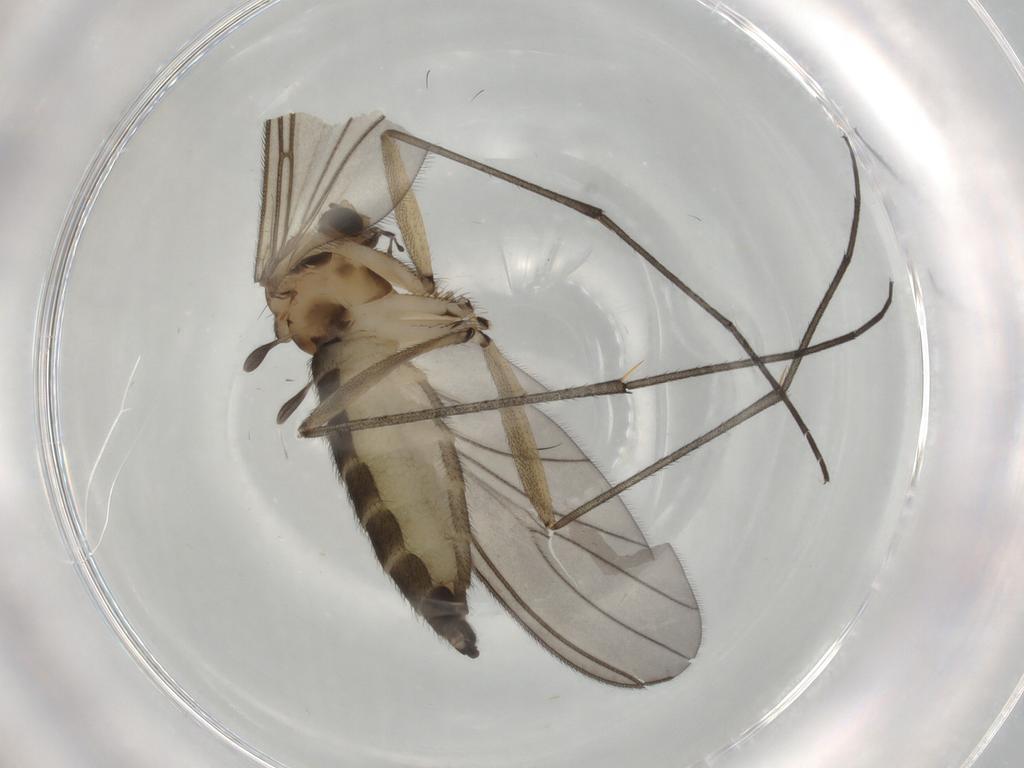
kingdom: Animalia
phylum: Arthropoda
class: Insecta
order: Diptera
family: Sciaridae
